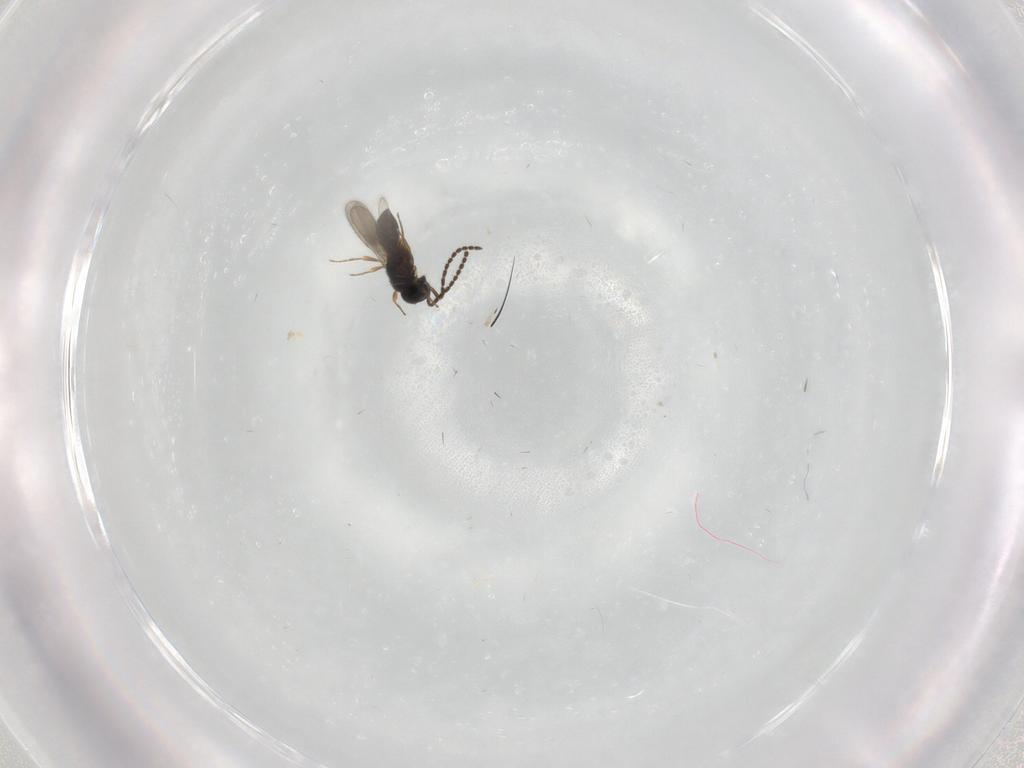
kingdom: Animalia
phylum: Arthropoda
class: Insecta
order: Hymenoptera
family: Scelionidae
